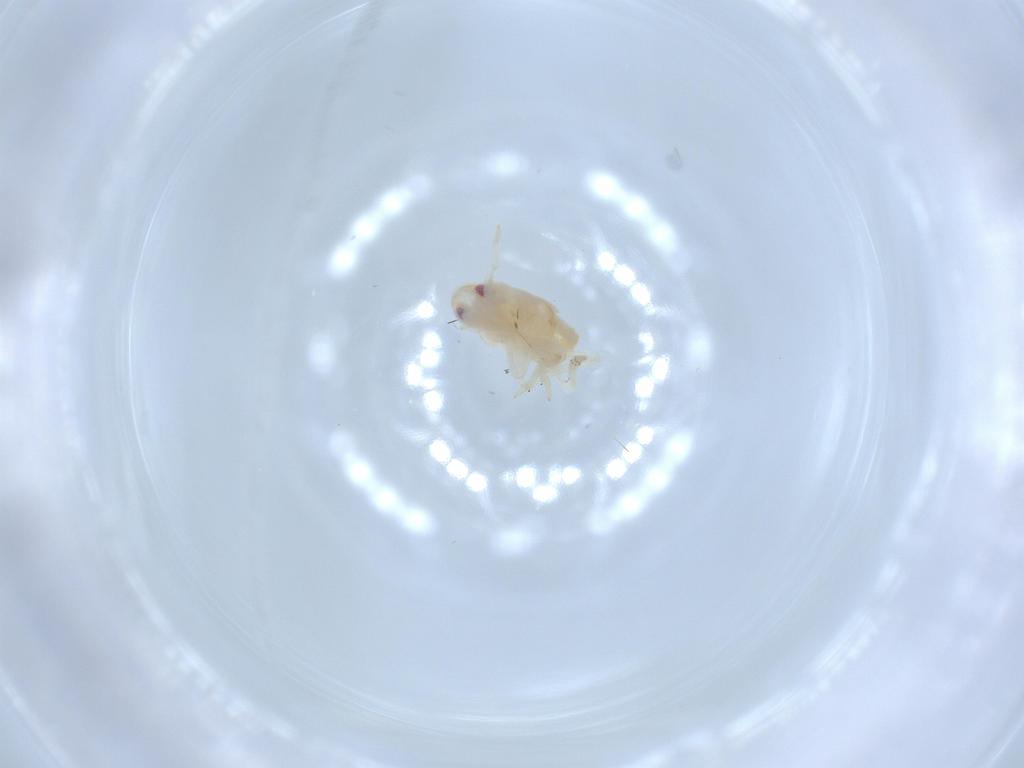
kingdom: Animalia
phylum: Arthropoda
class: Insecta
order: Hemiptera
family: Flatidae
